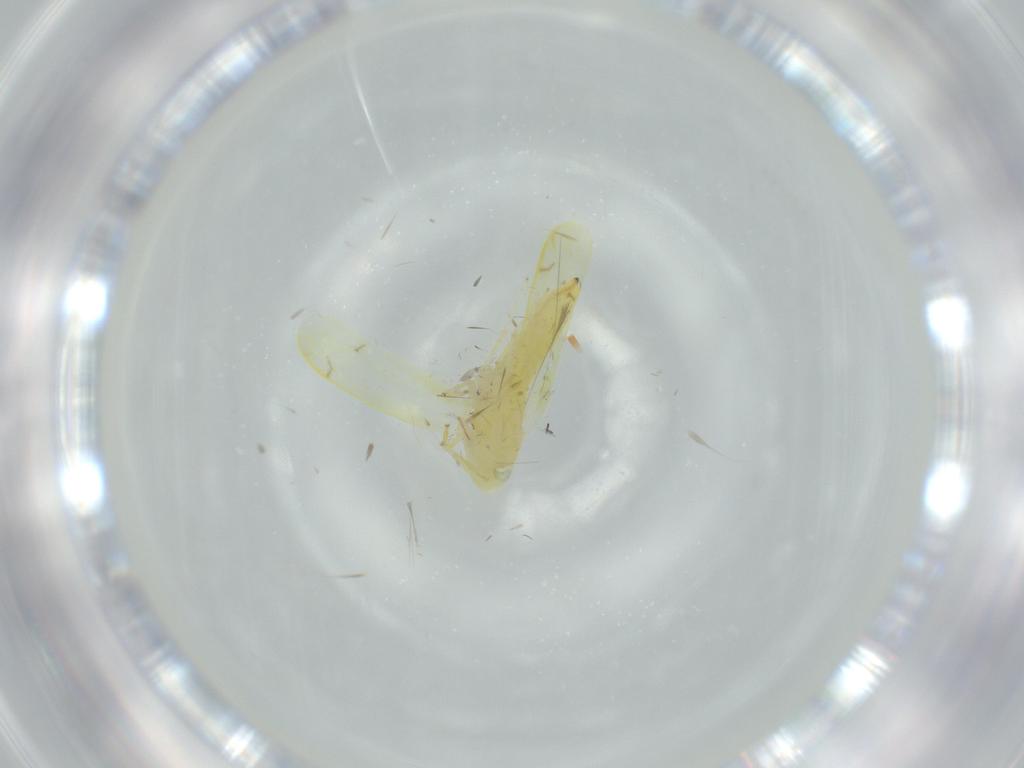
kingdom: Animalia
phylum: Arthropoda
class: Insecta
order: Hemiptera
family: Cicadellidae
